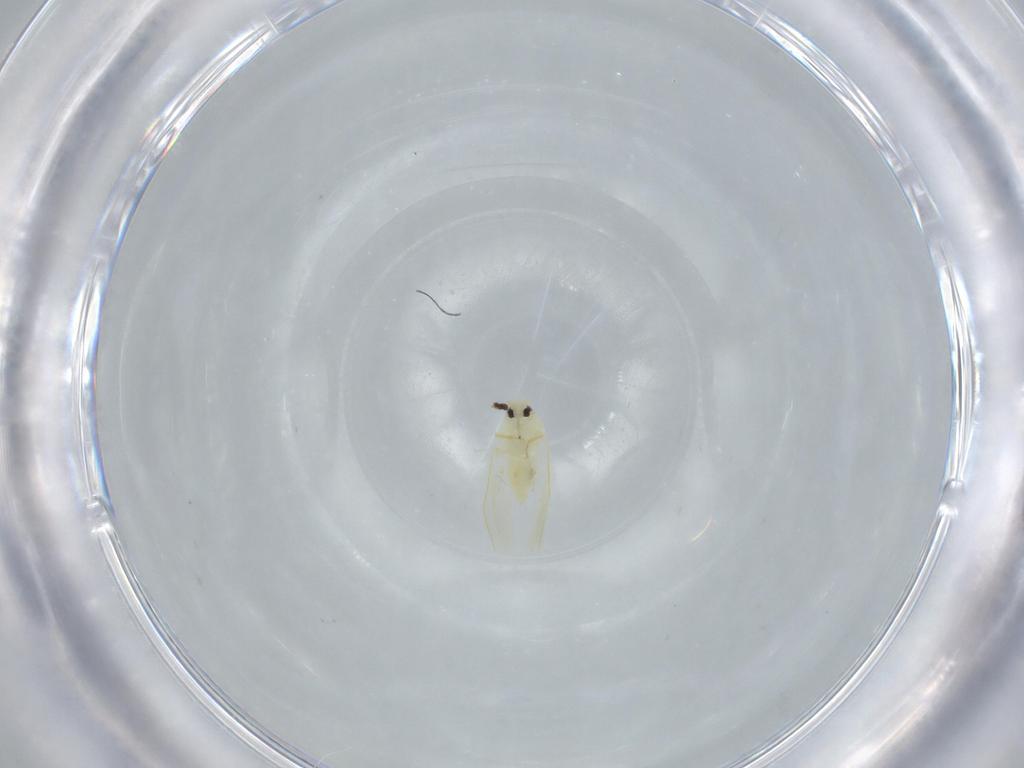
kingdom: Animalia
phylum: Arthropoda
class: Insecta
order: Hemiptera
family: Aleyrodidae
